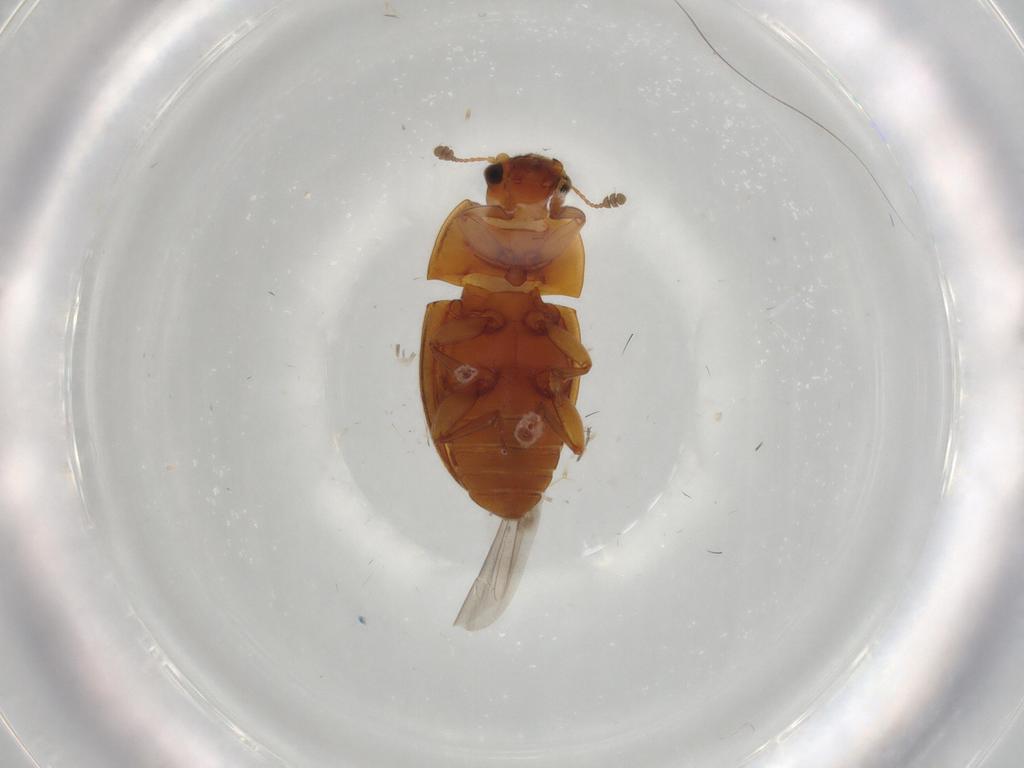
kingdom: Animalia
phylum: Arthropoda
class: Insecta
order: Coleoptera
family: Nitidulidae
